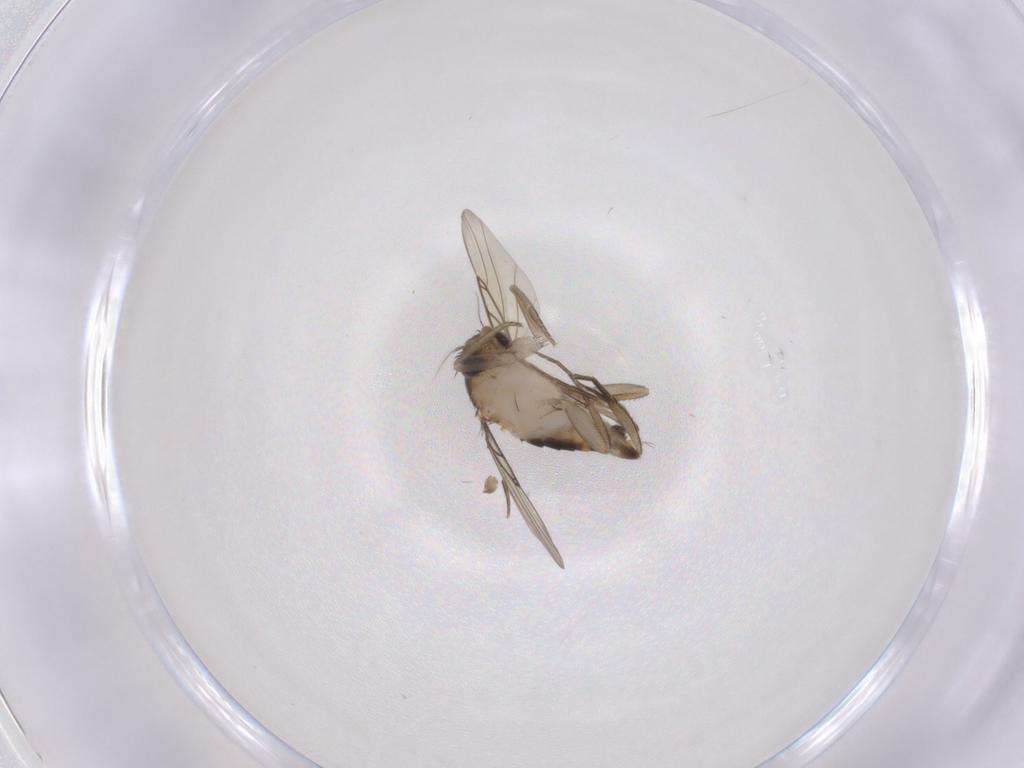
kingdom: Animalia
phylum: Arthropoda
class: Insecta
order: Diptera
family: Phoridae
